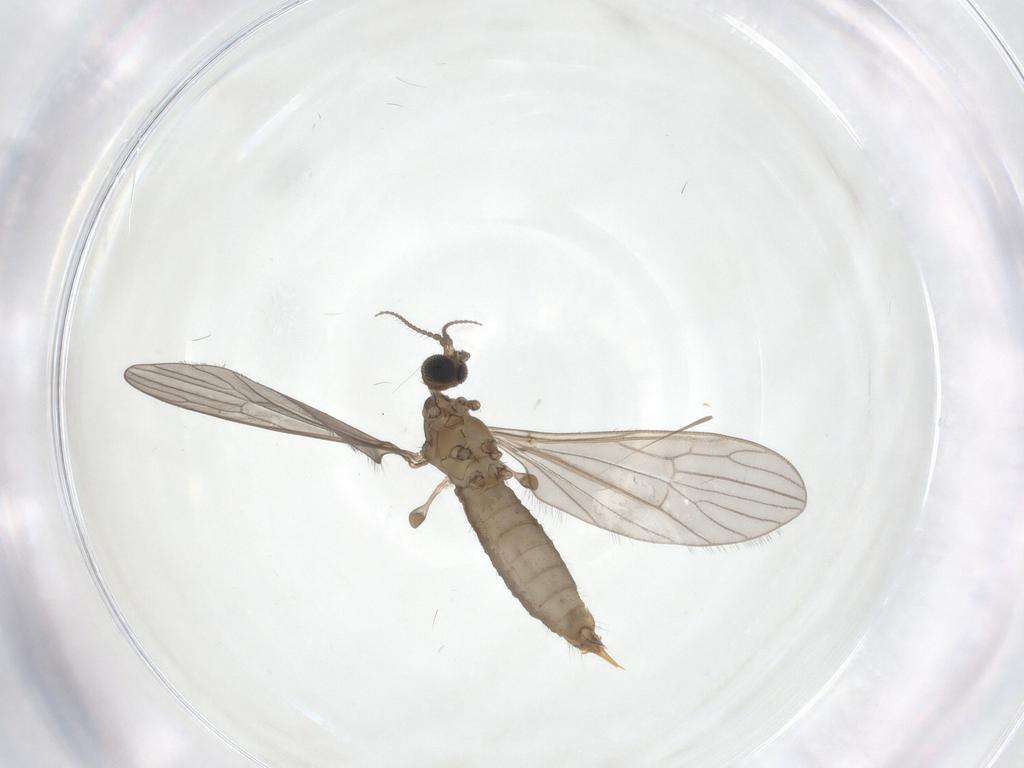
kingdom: Animalia
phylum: Arthropoda
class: Insecta
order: Diptera
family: Limoniidae
